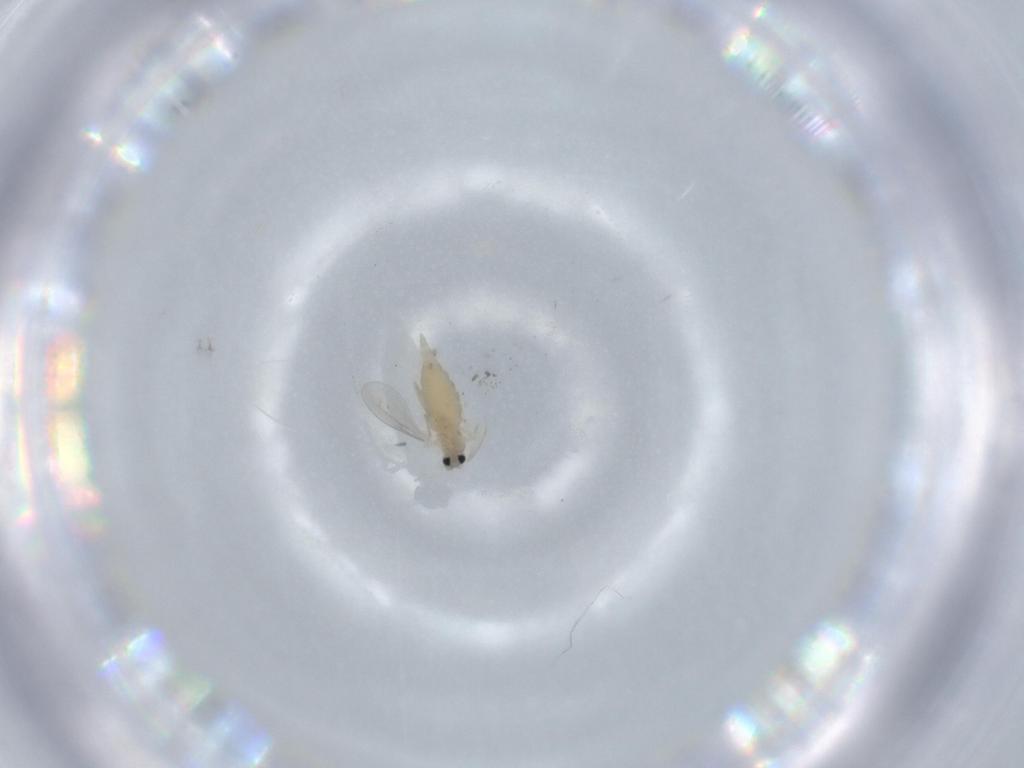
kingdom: Animalia
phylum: Arthropoda
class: Insecta
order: Diptera
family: Cecidomyiidae
